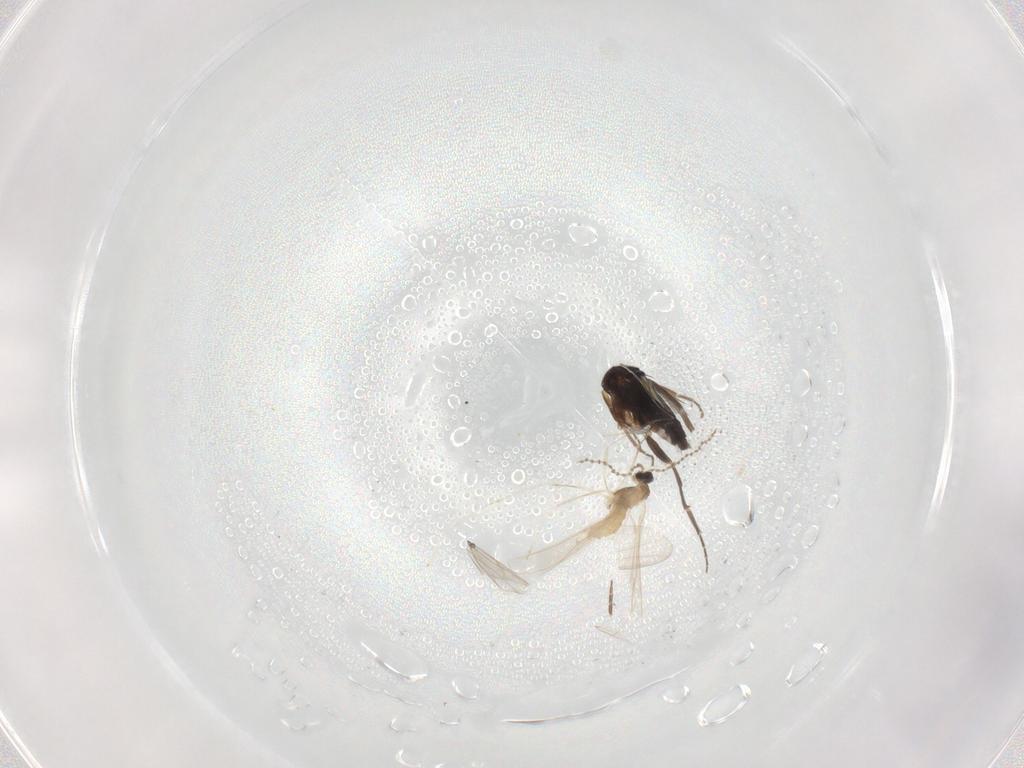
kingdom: Animalia
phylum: Arthropoda
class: Insecta
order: Diptera
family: Phoridae
